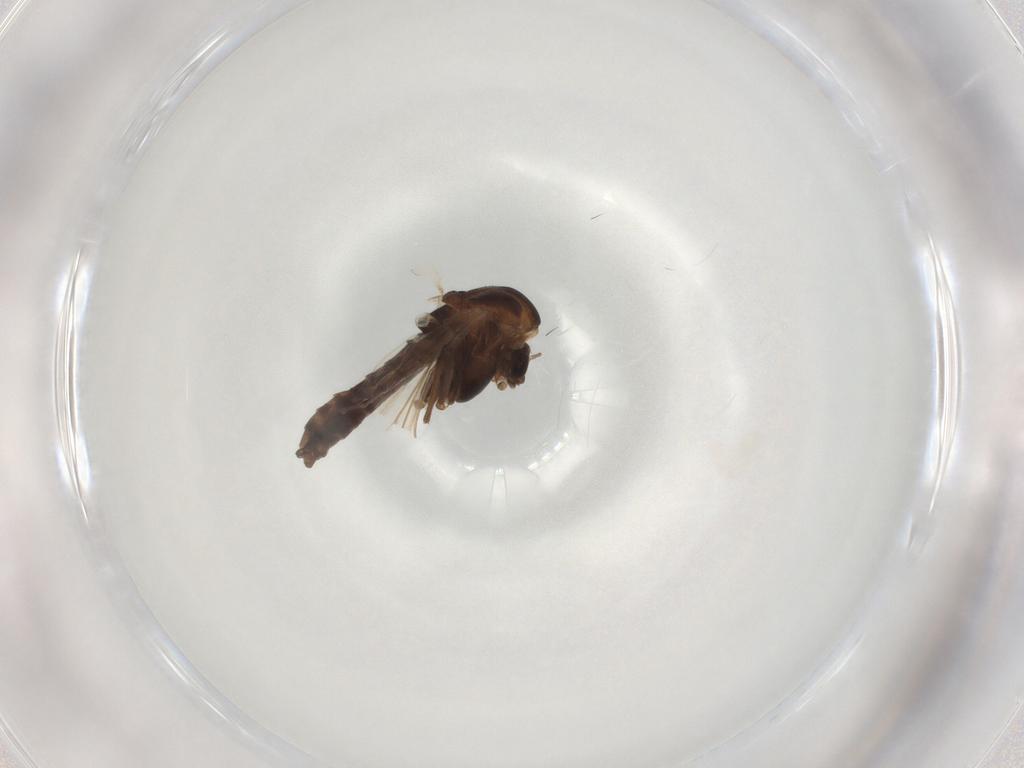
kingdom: Animalia
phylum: Arthropoda
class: Insecta
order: Diptera
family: Chironomidae
